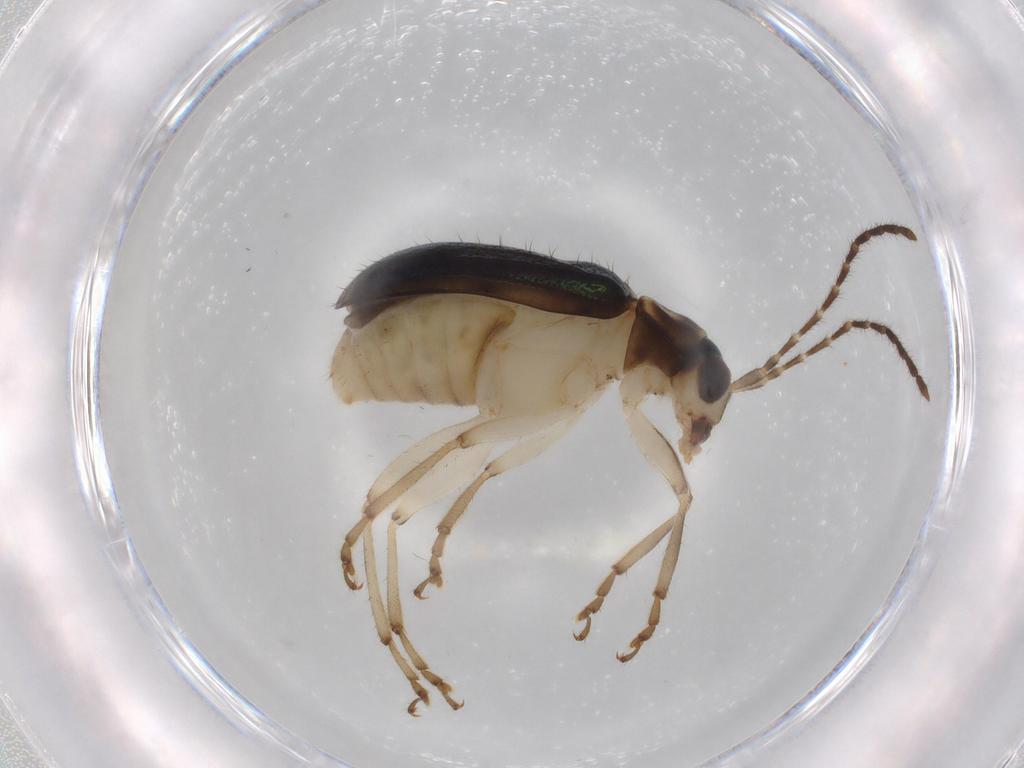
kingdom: Animalia
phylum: Arthropoda
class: Insecta
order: Coleoptera
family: Chrysomelidae
